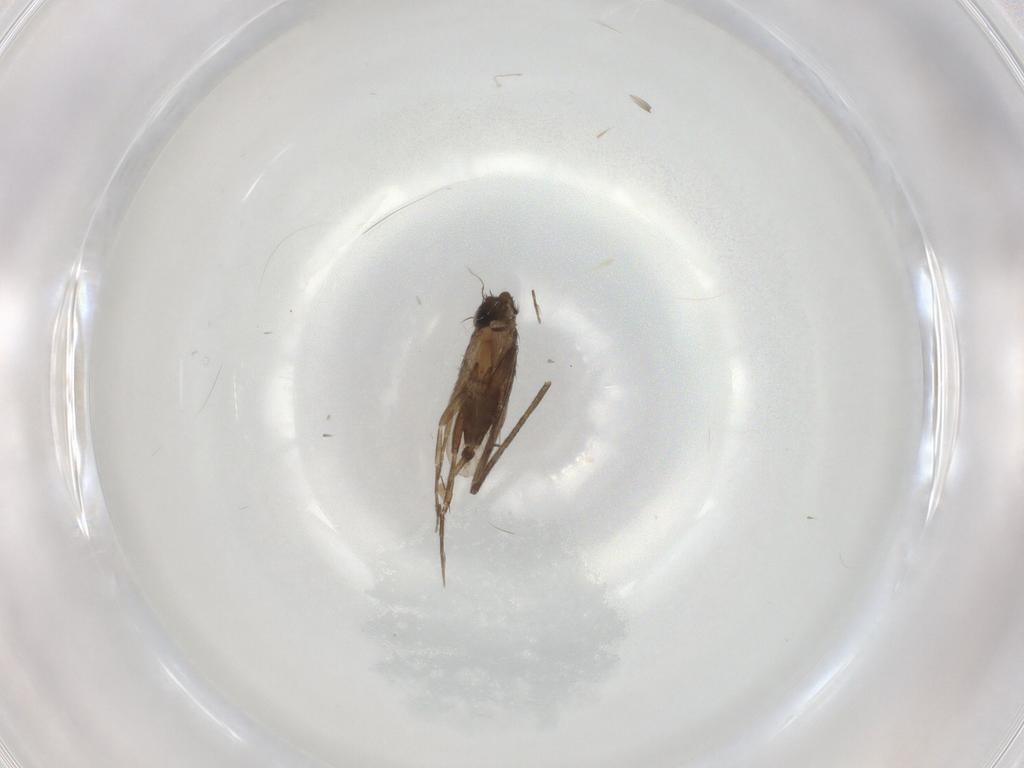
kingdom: Animalia
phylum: Arthropoda
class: Insecta
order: Diptera
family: Phoridae
